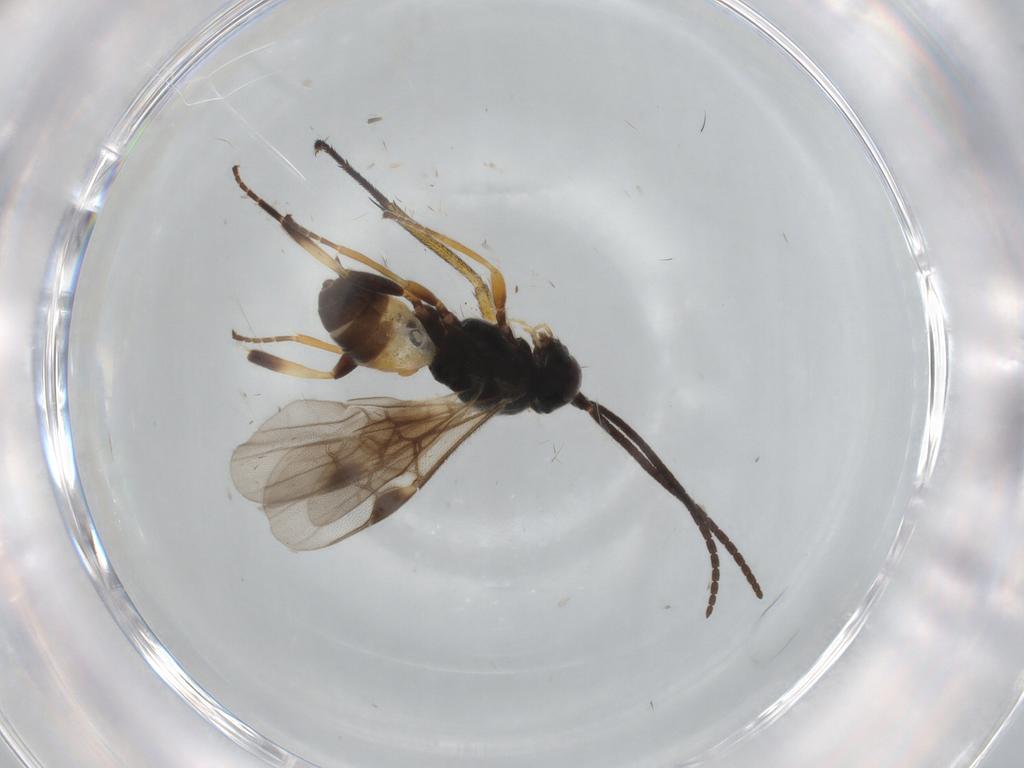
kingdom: Animalia
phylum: Arthropoda
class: Insecta
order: Hymenoptera
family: Braconidae
